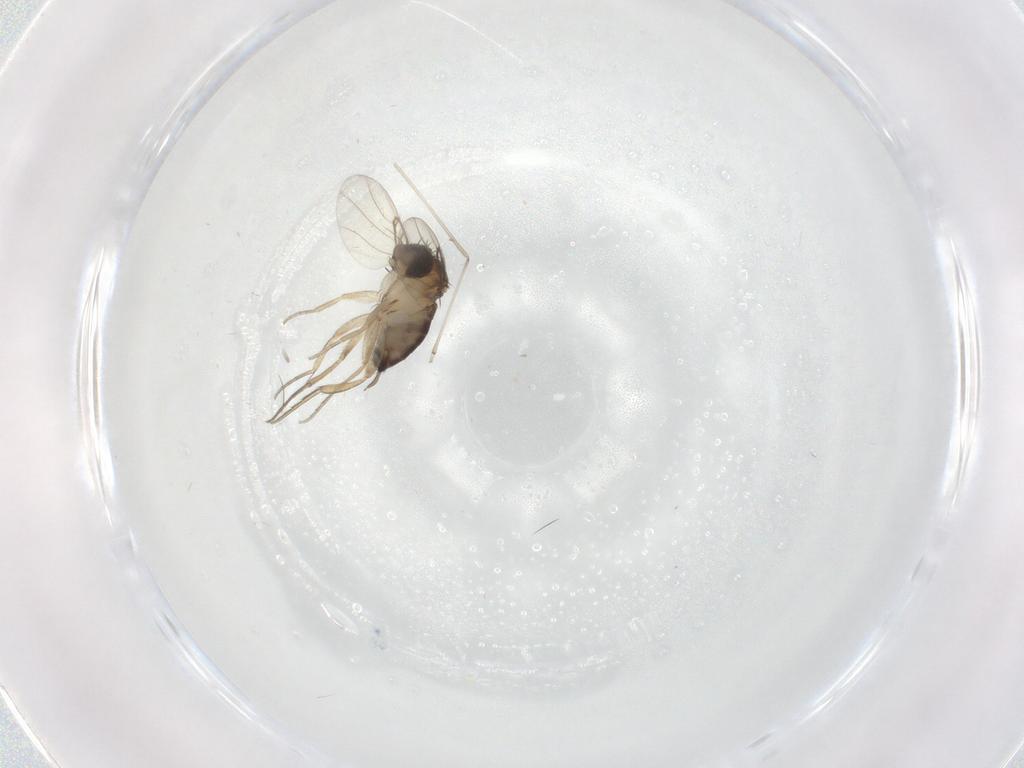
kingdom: Animalia
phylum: Arthropoda
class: Insecta
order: Diptera
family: Cecidomyiidae
